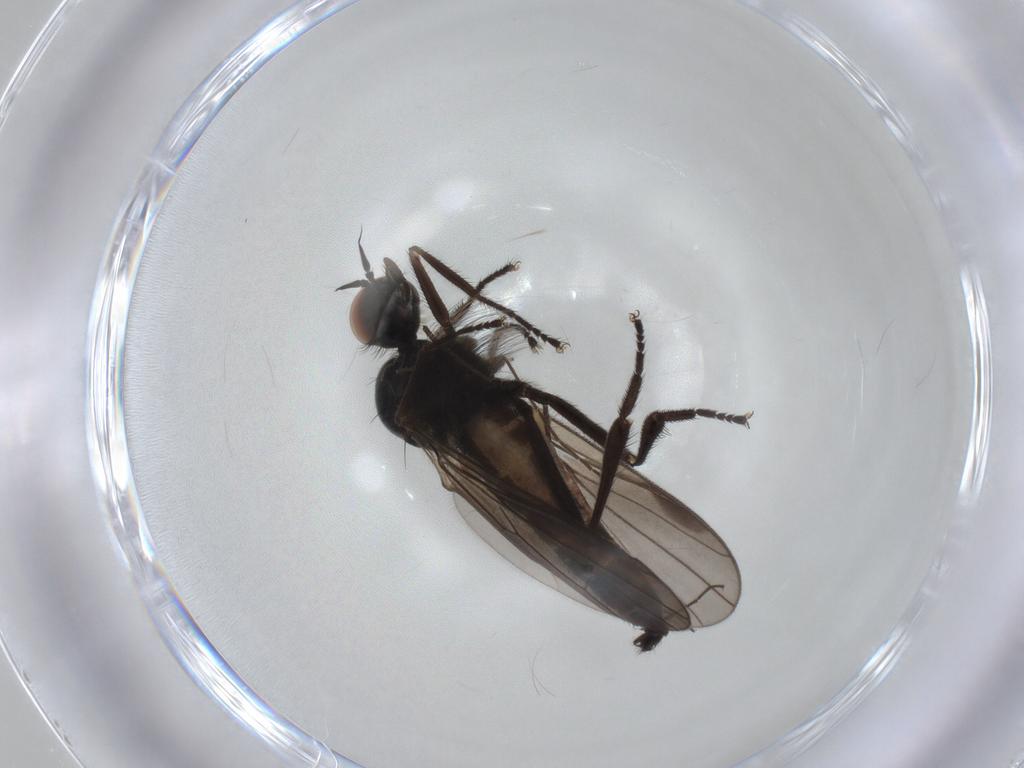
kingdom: Animalia
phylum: Arthropoda
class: Insecta
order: Diptera
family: Hybotidae
